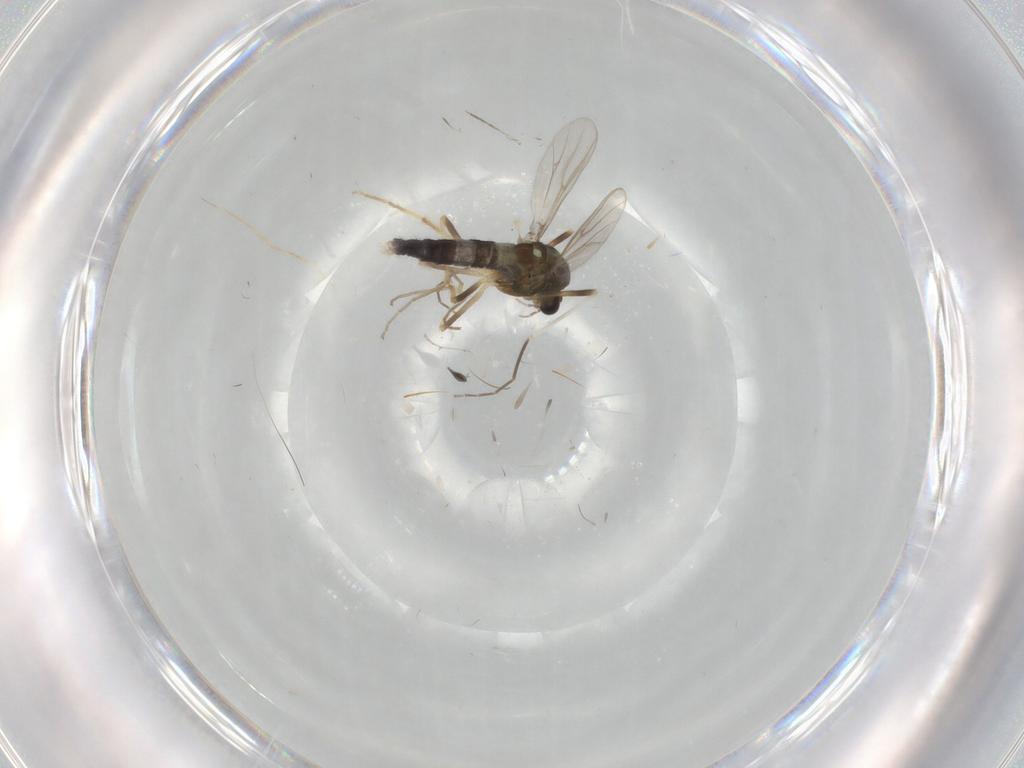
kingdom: Animalia
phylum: Arthropoda
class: Insecta
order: Diptera
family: Chironomidae
